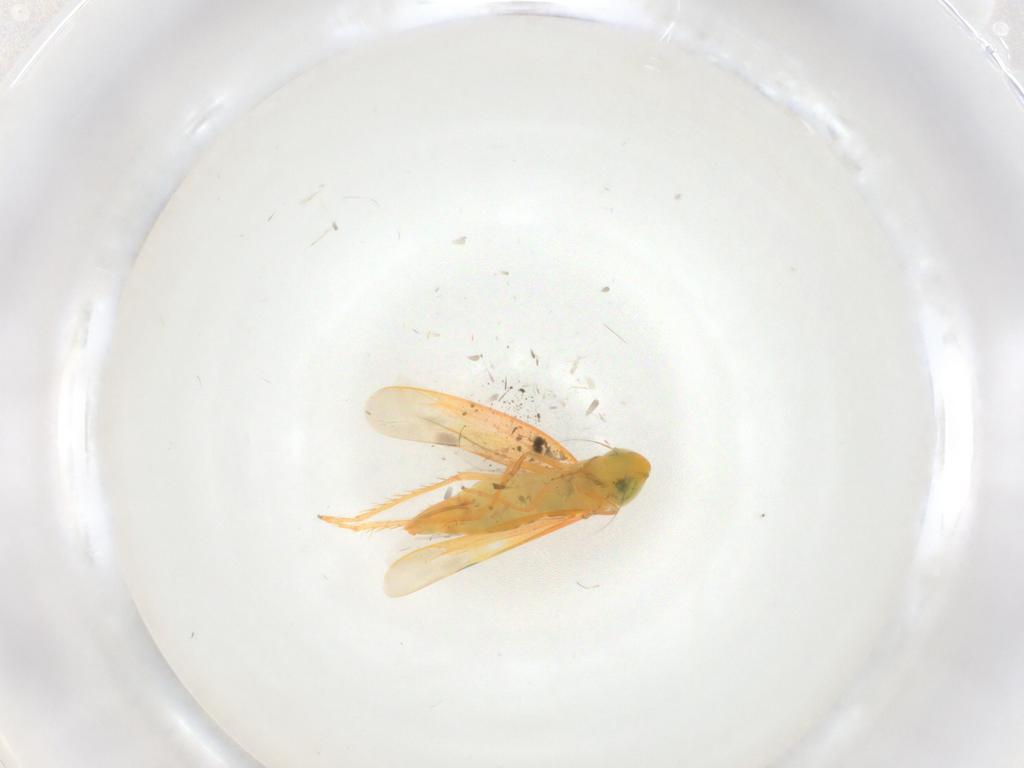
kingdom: Animalia
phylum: Arthropoda
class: Insecta
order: Hemiptera
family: Cicadellidae
